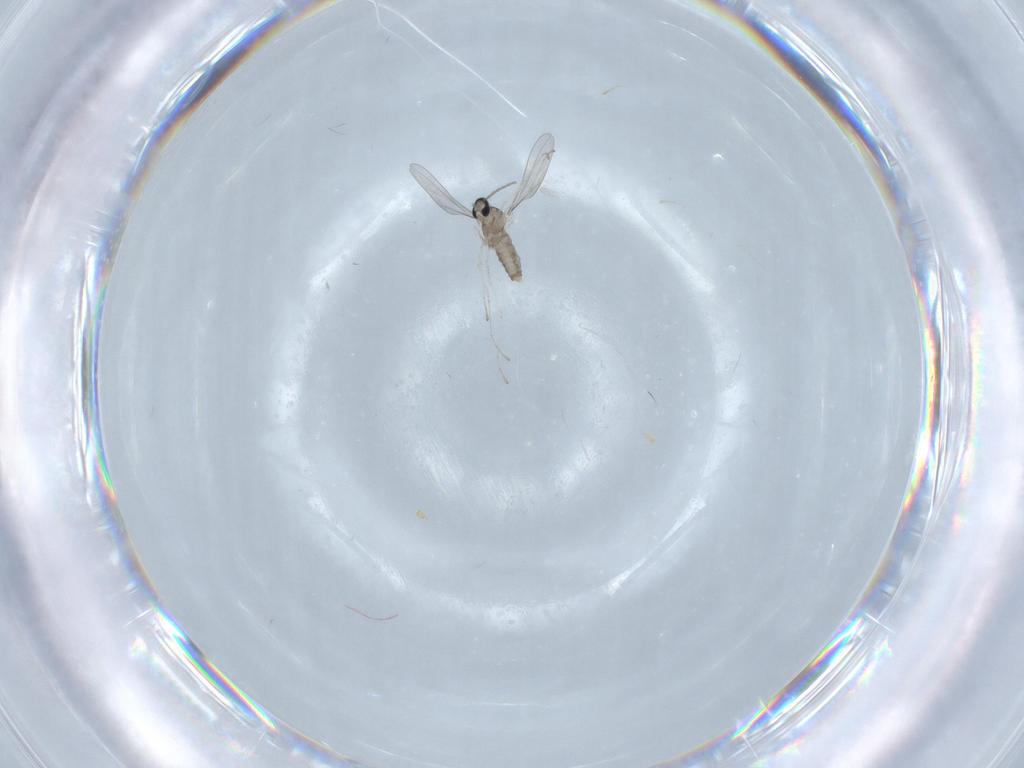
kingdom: Animalia
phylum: Arthropoda
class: Insecta
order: Diptera
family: Cecidomyiidae
